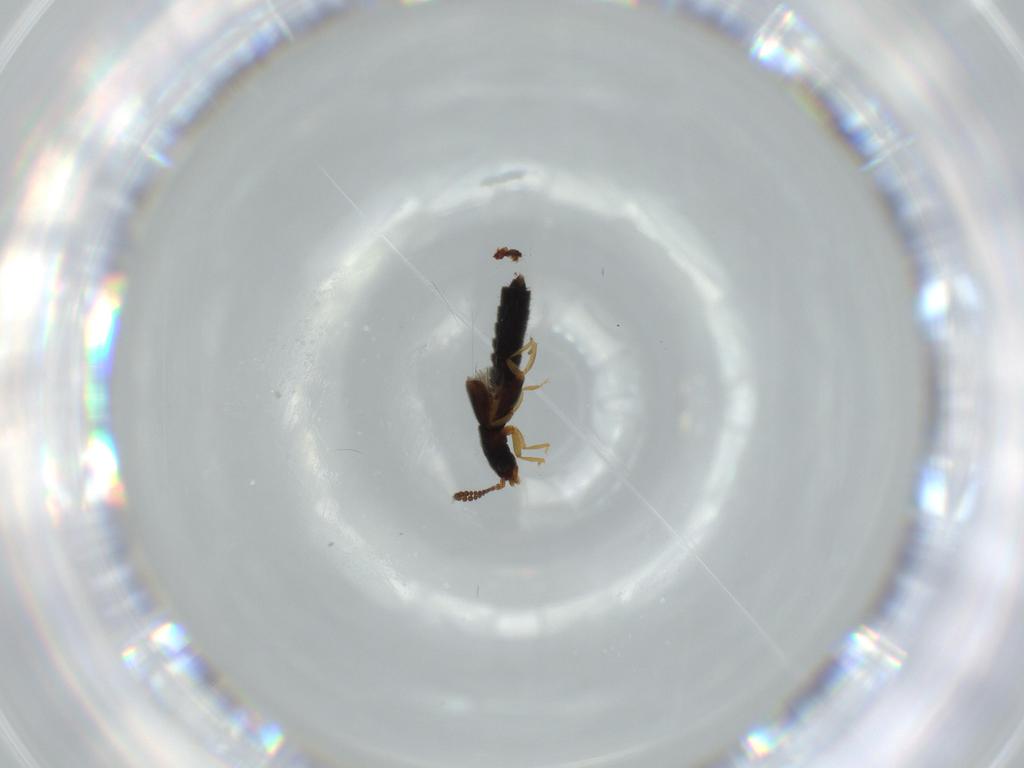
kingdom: Animalia
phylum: Arthropoda
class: Insecta
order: Coleoptera
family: Staphylinidae
